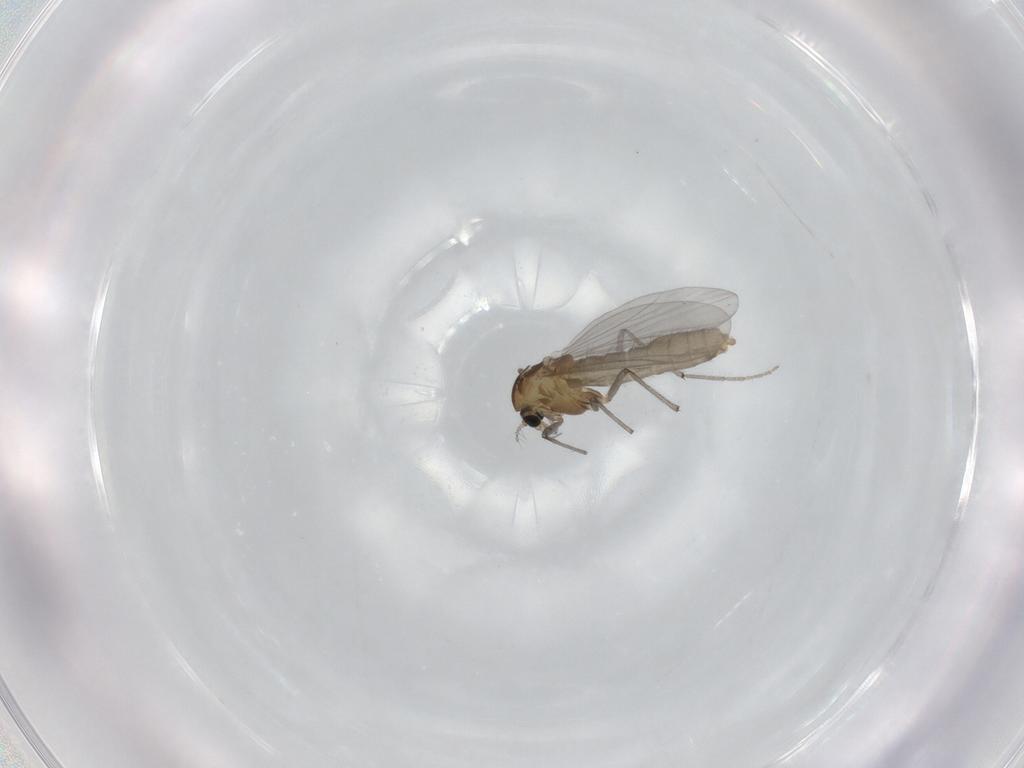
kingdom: Animalia
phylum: Arthropoda
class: Insecta
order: Diptera
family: Chironomidae
